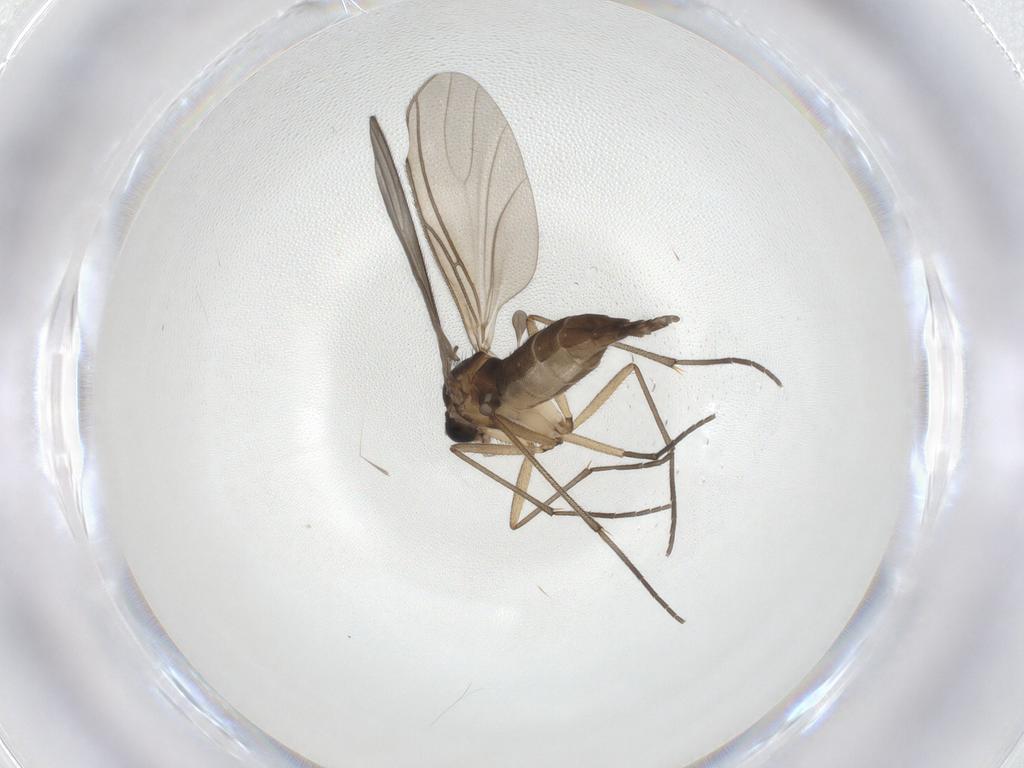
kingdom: Animalia
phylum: Arthropoda
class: Insecta
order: Diptera
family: Sciaridae
